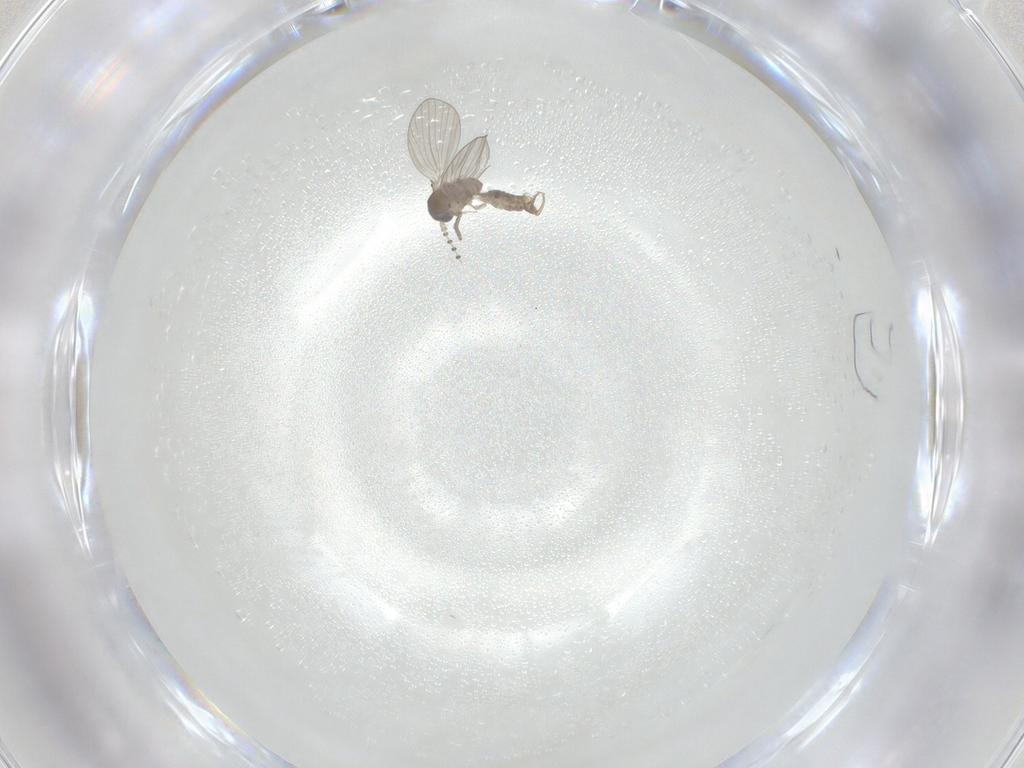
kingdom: Animalia
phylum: Arthropoda
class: Insecta
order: Diptera
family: Psychodidae
